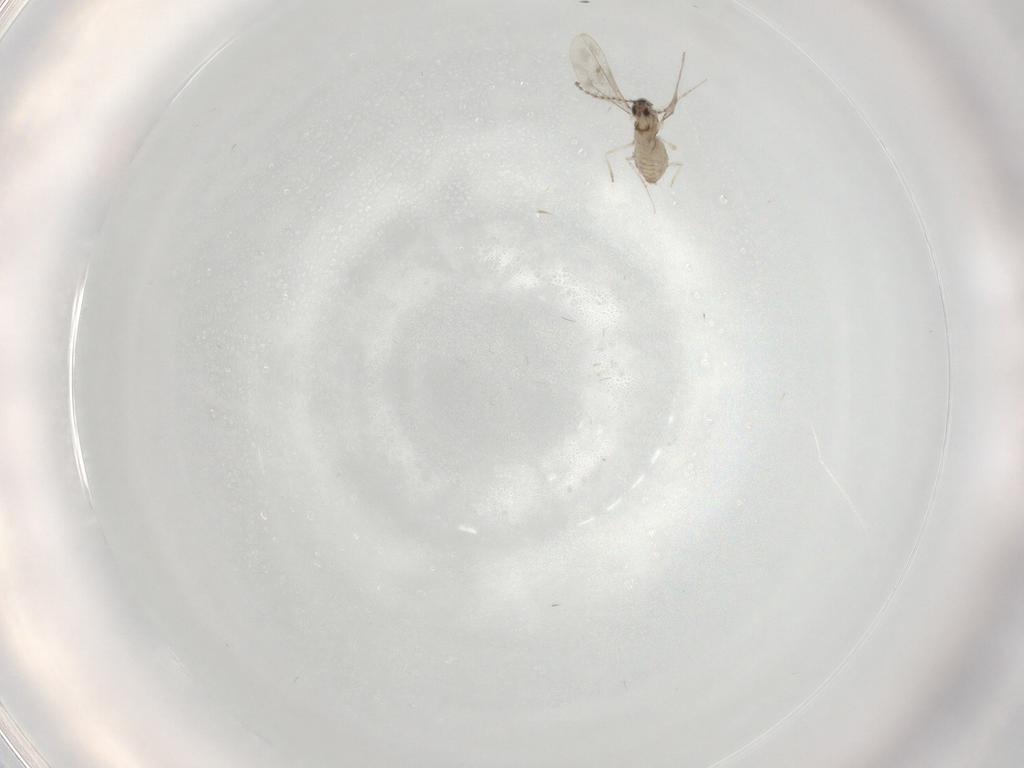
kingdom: Animalia
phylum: Arthropoda
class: Insecta
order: Diptera
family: Cecidomyiidae
